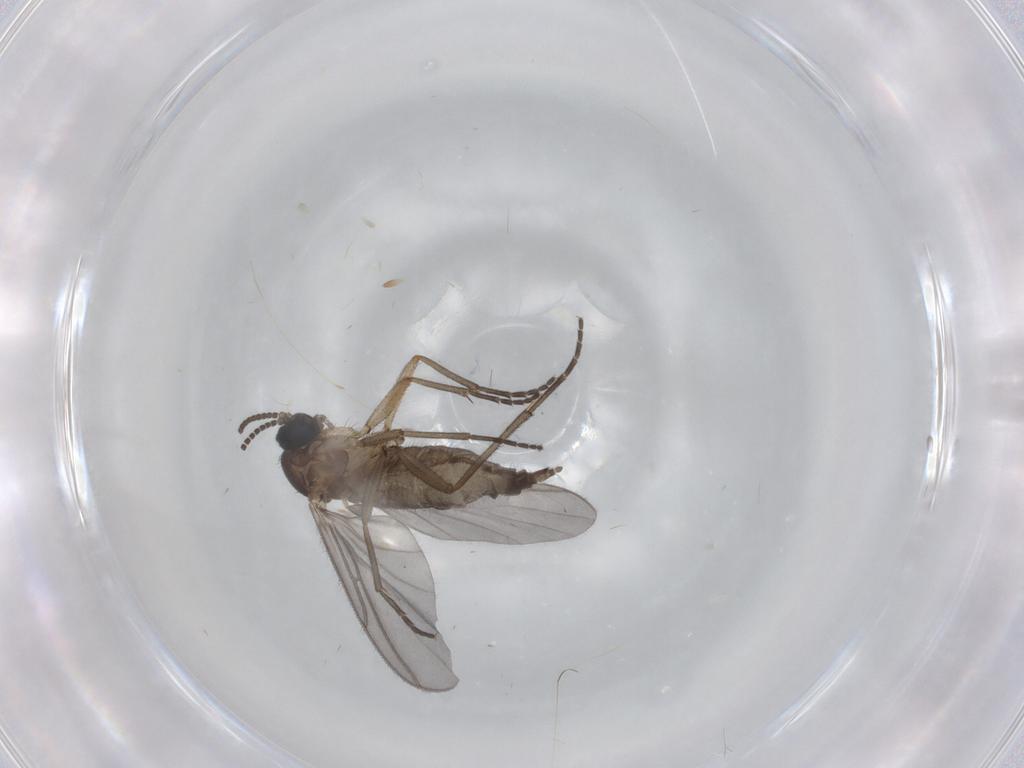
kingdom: Animalia
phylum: Arthropoda
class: Insecta
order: Diptera
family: Sciaridae
